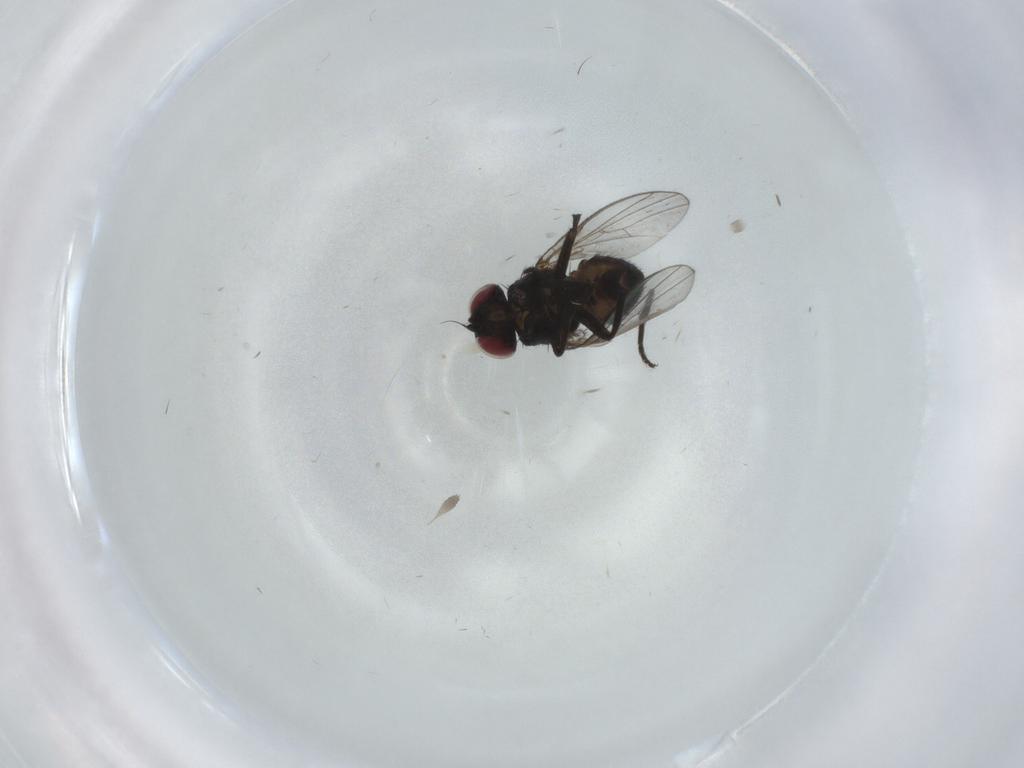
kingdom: Animalia
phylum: Arthropoda
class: Insecta
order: Diptera
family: Agromyzidae
